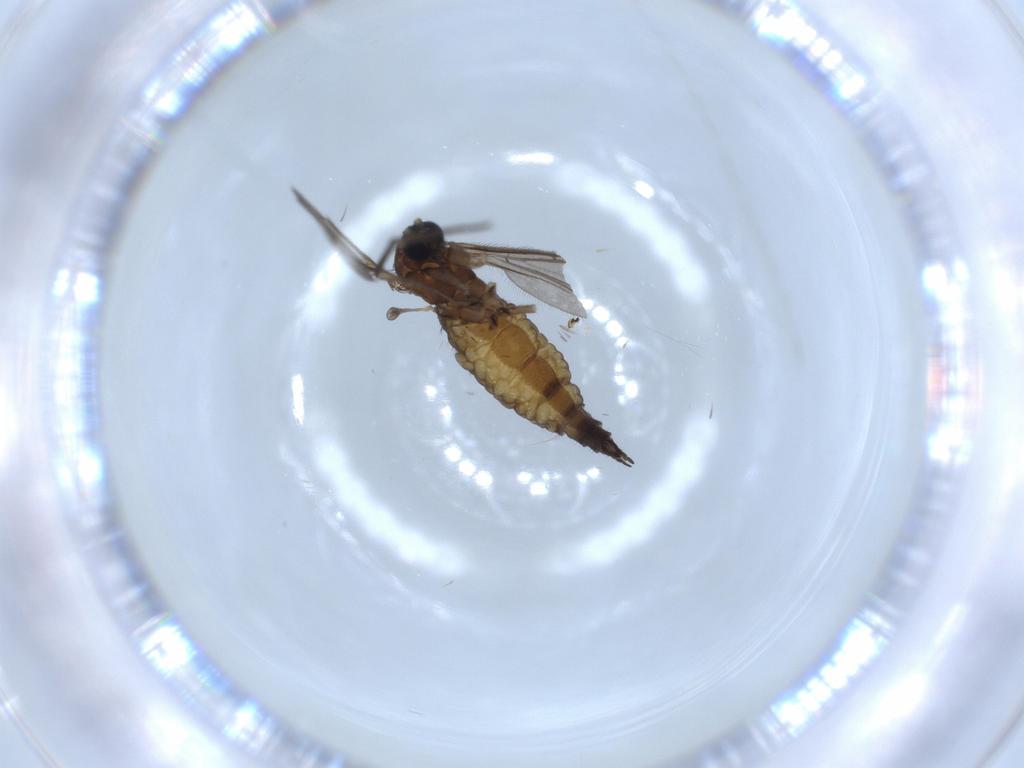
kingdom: Animalia
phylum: Arthropoda
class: Insecta
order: Diptera
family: Sciaridae
